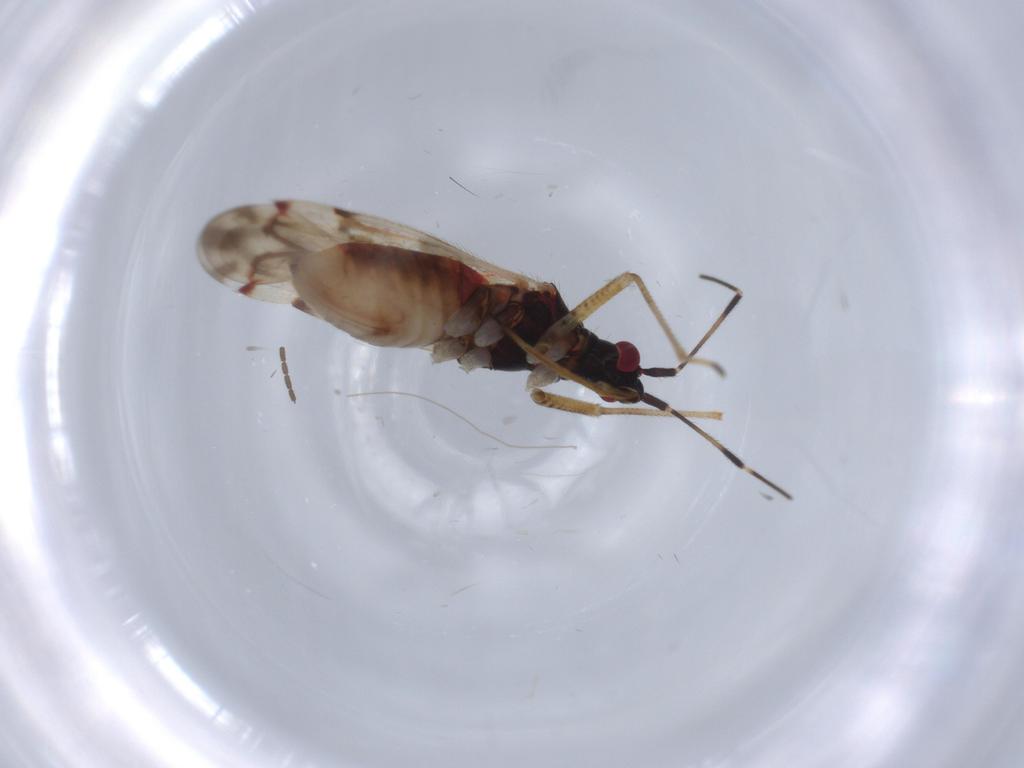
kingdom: Animalia
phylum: Arthropoda
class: Insecta
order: Hemiptera
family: Miridae
